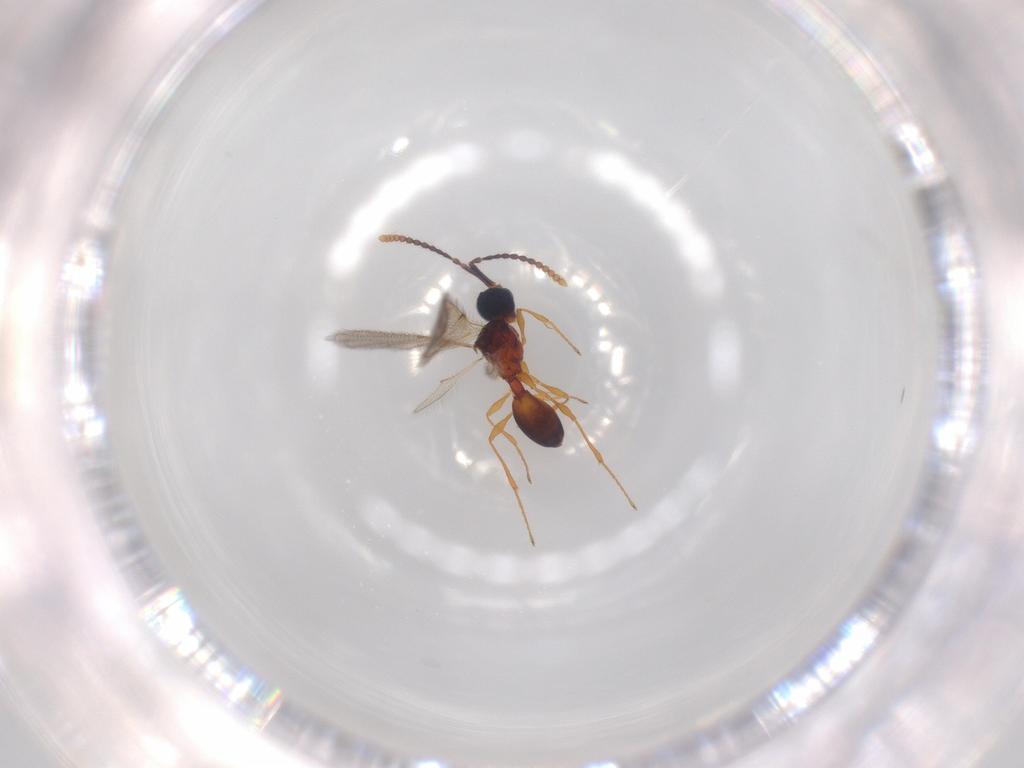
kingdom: Animalia
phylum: Arthropoda
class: Insecta
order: Hymenoptera
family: Diapriidae
